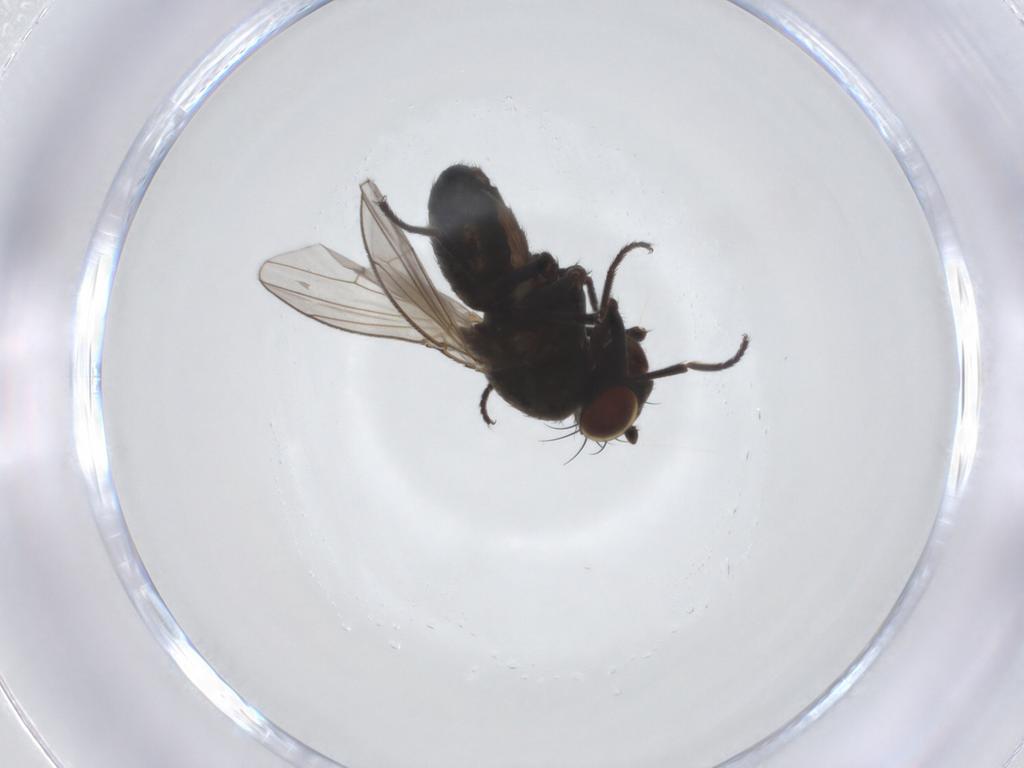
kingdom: Animalia
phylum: Arthropoda
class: Insecta
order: Diptera
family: Ephydridae
